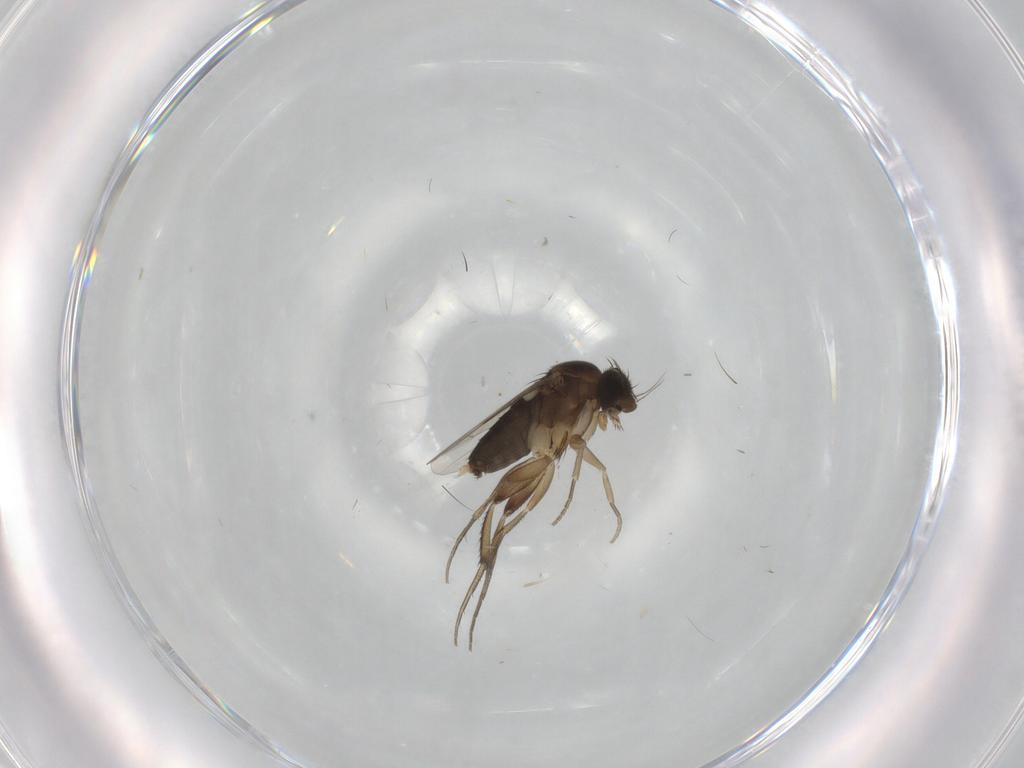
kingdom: Animalia
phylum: Arthropoda
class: Insecta
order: Diptera
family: Phoridae
